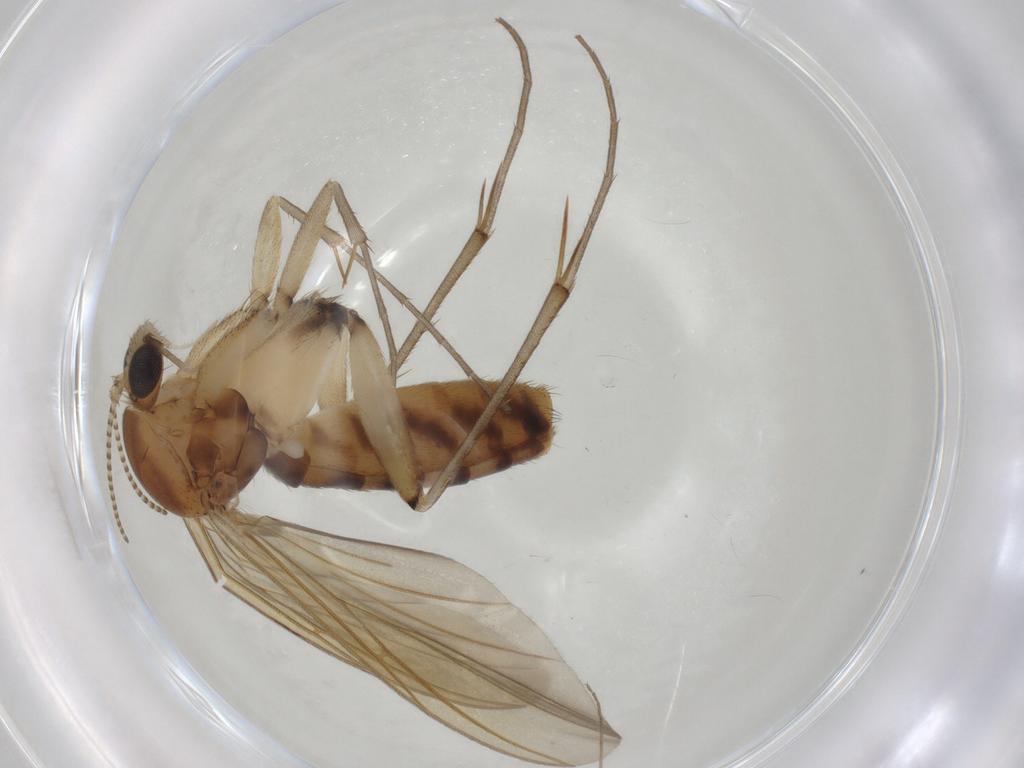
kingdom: Animalia
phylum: Arthropoda
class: Insecta
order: Diptera
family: Mycetophilidae
